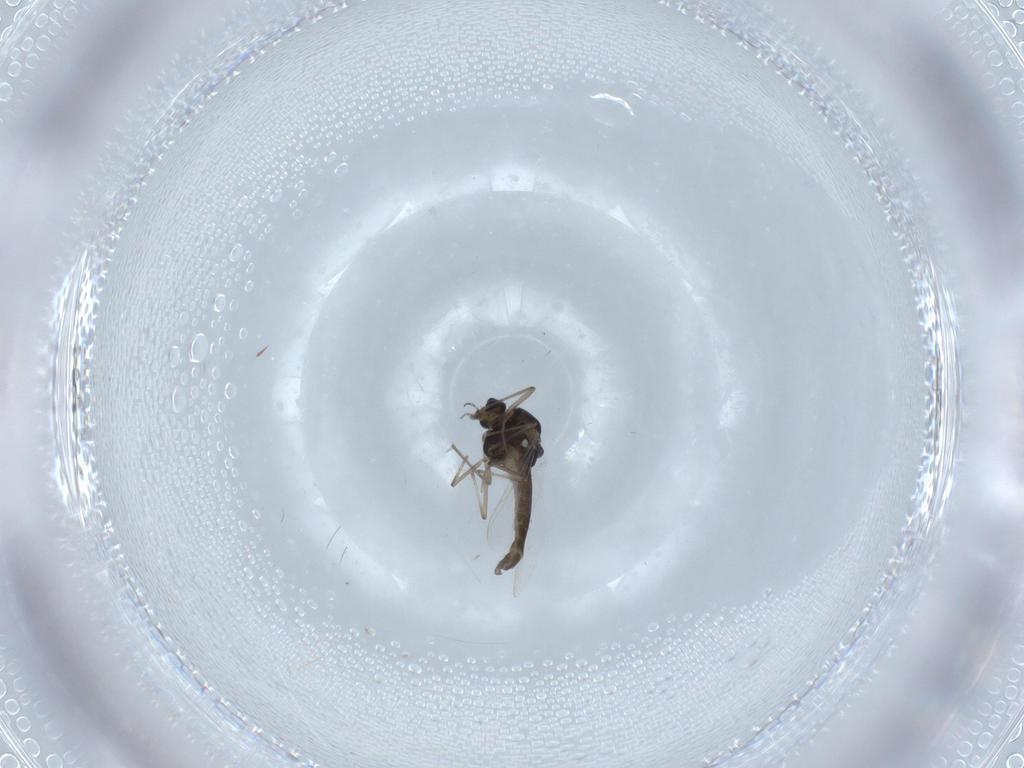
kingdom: Animalia
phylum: Arthropoda
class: Insecta
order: Diptera
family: Chironomidae
